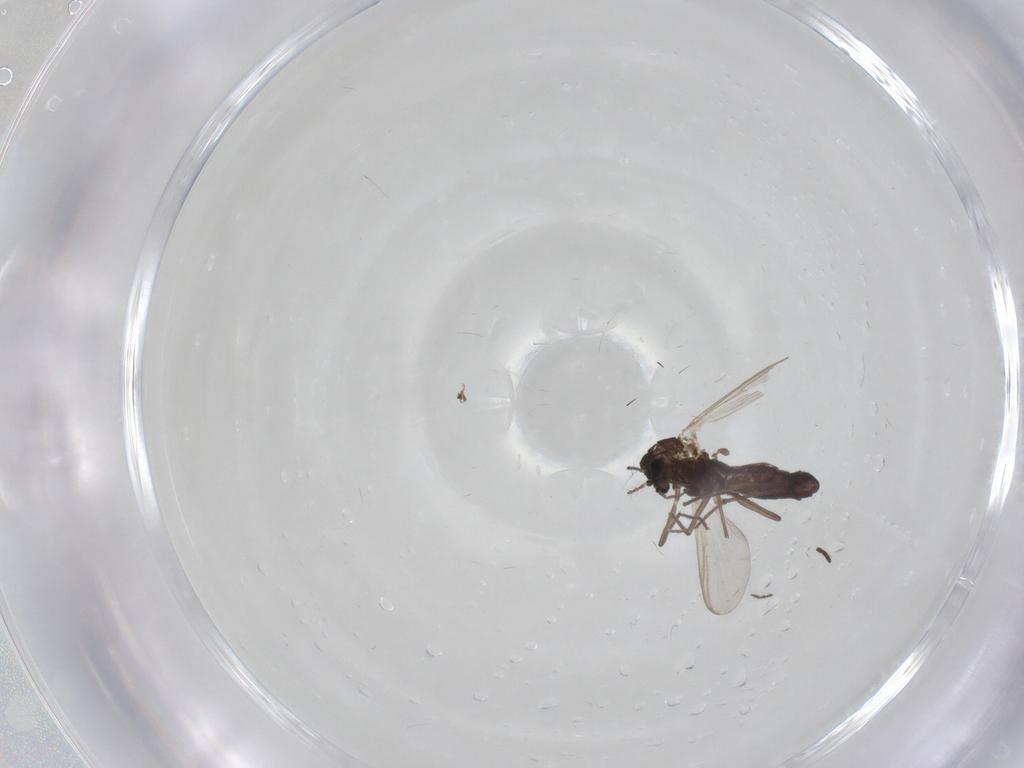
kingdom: Animalia
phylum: Arthropoda
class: Insecta
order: Diptera
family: Sciaridae
